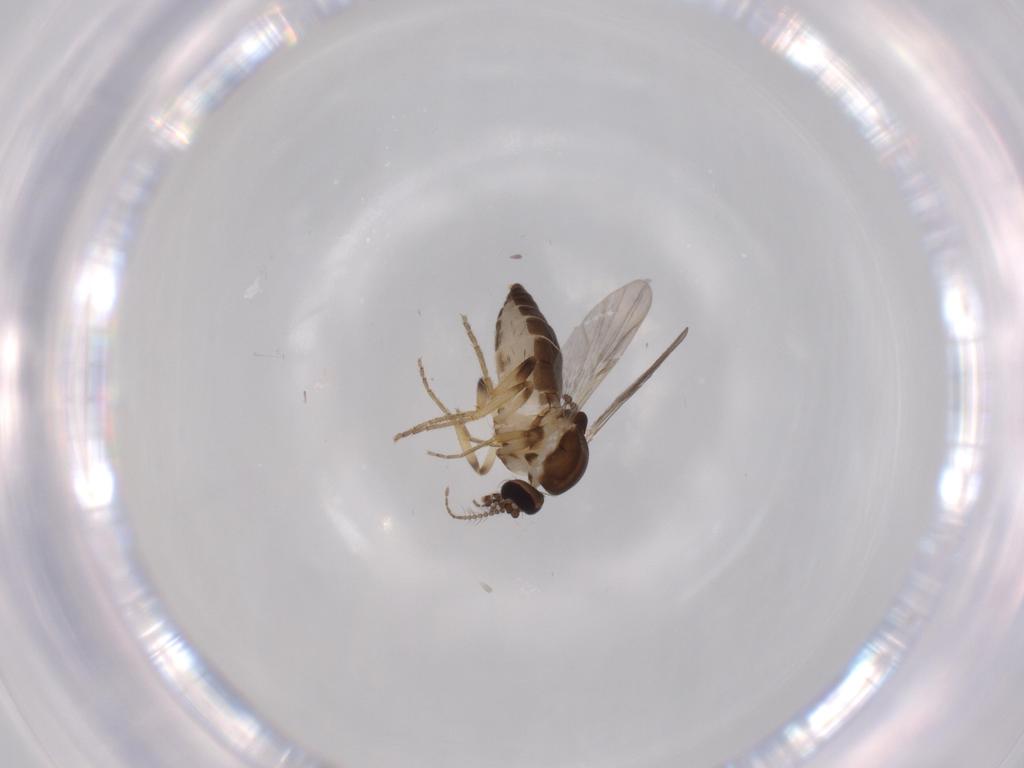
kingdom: Animalia
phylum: Arthropoda
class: Insecta
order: Diptera
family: Ceratopogonidae
